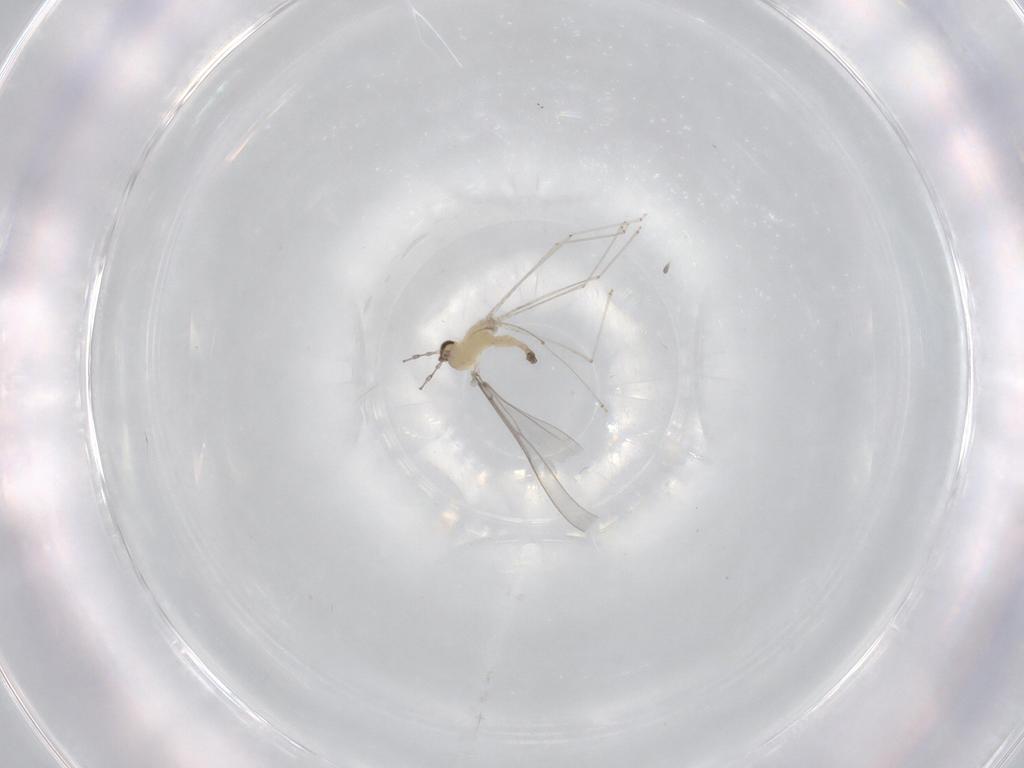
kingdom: Animalia
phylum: Arthropoda
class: Insecta
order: Diptera
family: Cecidomyiidae
